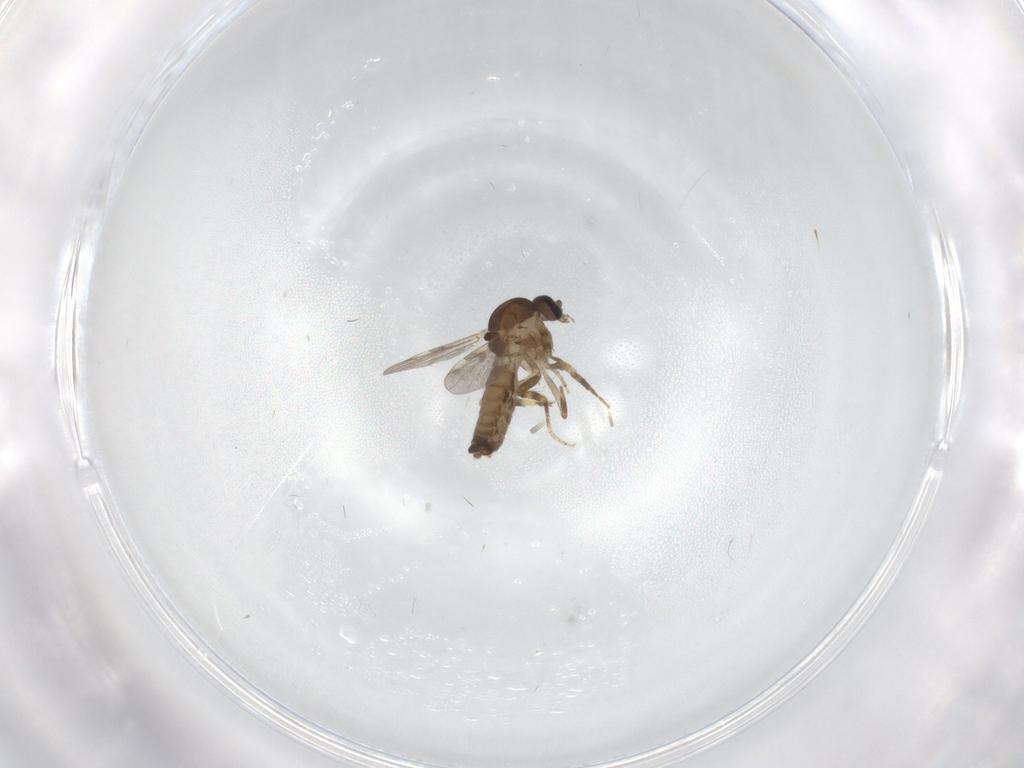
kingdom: Animalia
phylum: Arthropoda
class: Insecta
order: Diptera
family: Ceratopogonidae
